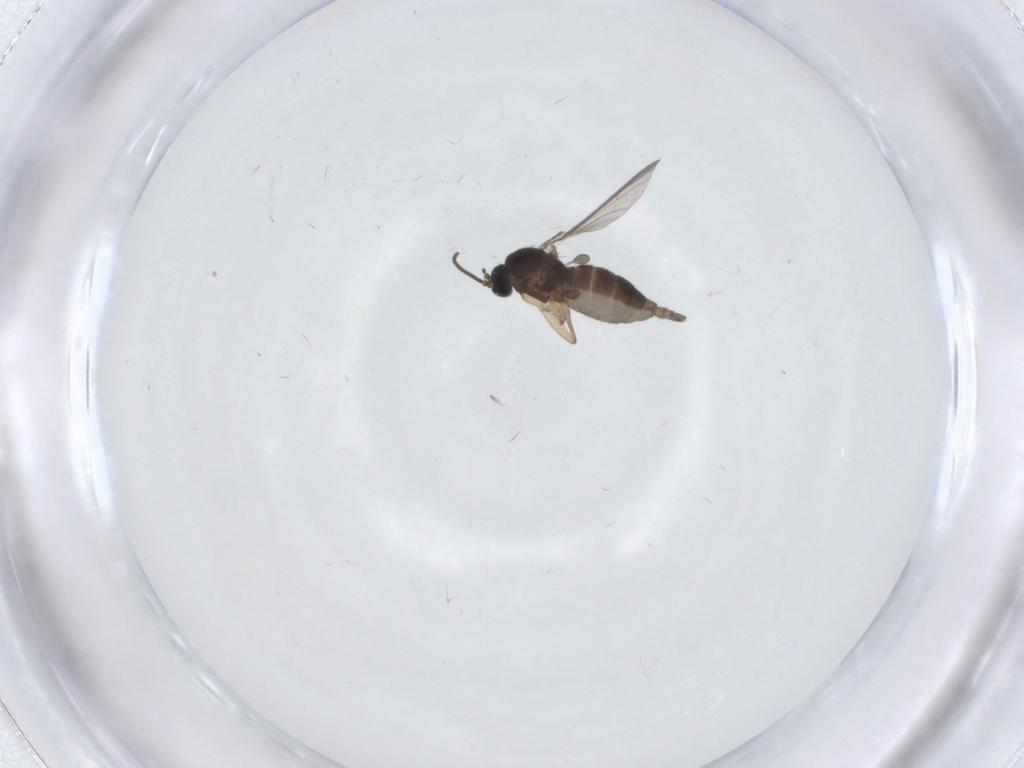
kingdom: Animalia
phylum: Arthropoda
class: Insecta
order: Diptera
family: Sciaridae
